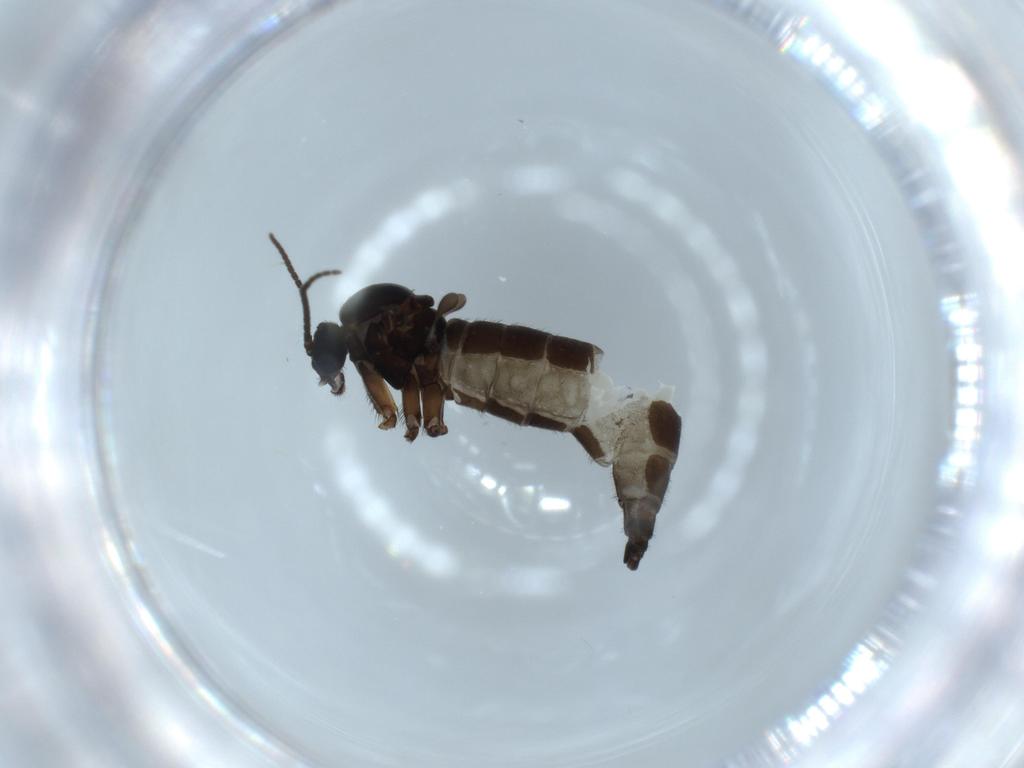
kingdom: Animalia
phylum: Arthropoda
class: Insecta
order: Diptera
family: Sciaridae
